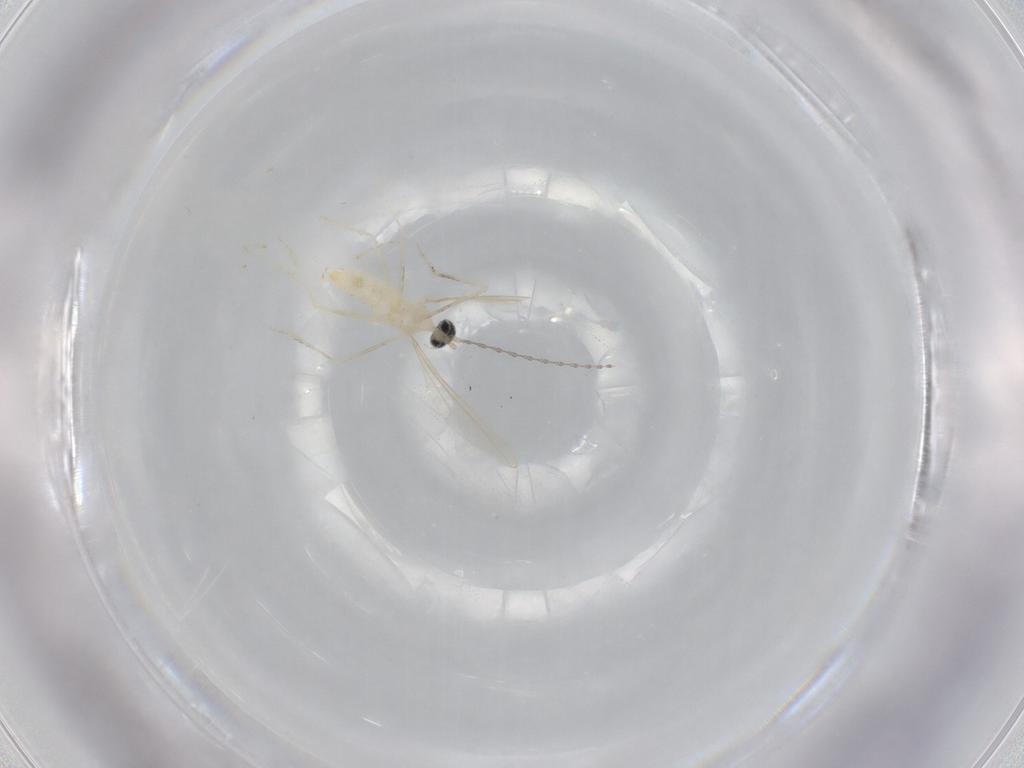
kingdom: Animalia
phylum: Arthropoda
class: Insecta
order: Diptera
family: Cecidomyiidae
